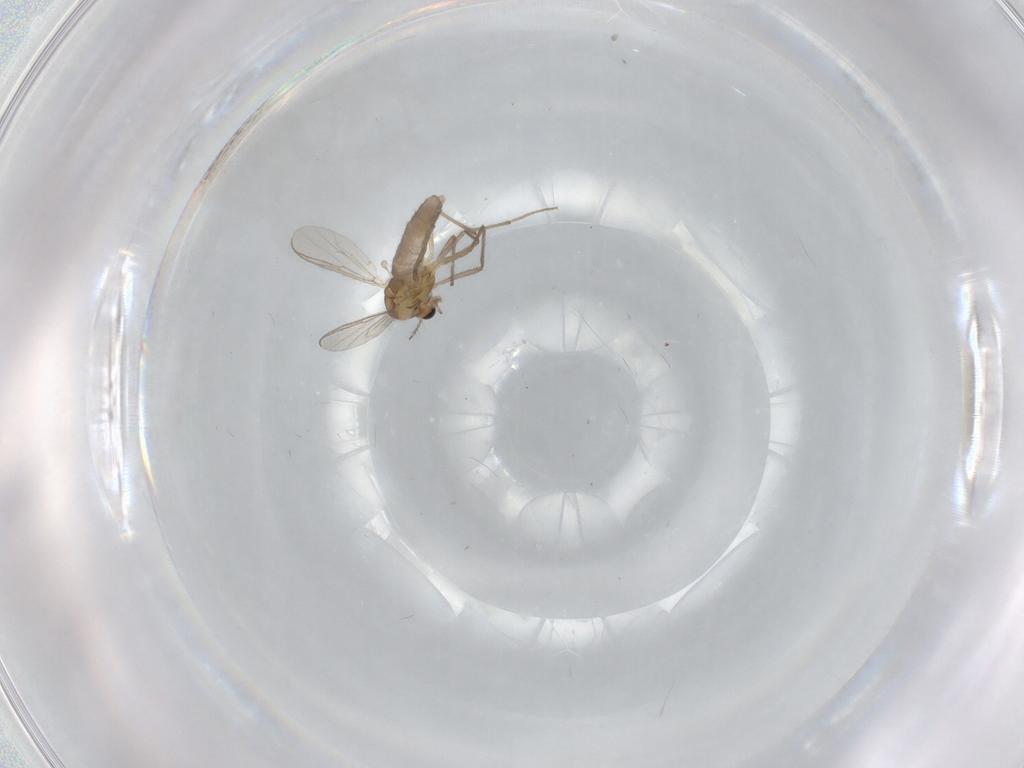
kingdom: Animalia
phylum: Arthropoda
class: Insecta
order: Diptera
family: Chironomidae
